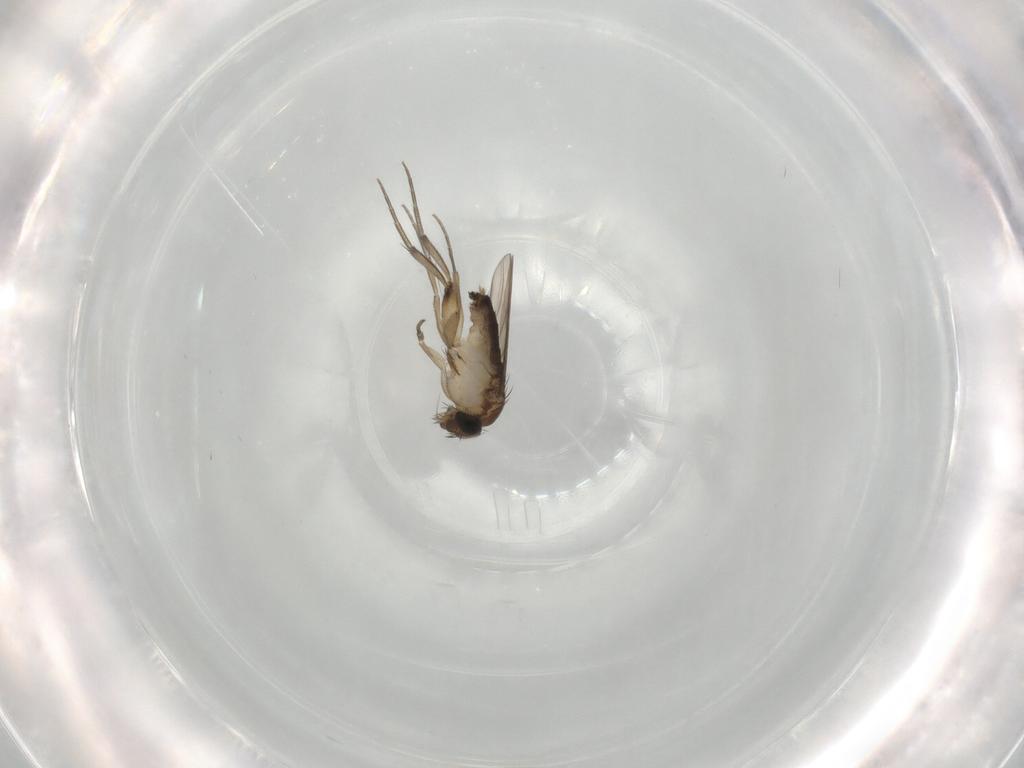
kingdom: Animalia
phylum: Arthropoda
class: Insecta
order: Diptera
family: Phoridae
